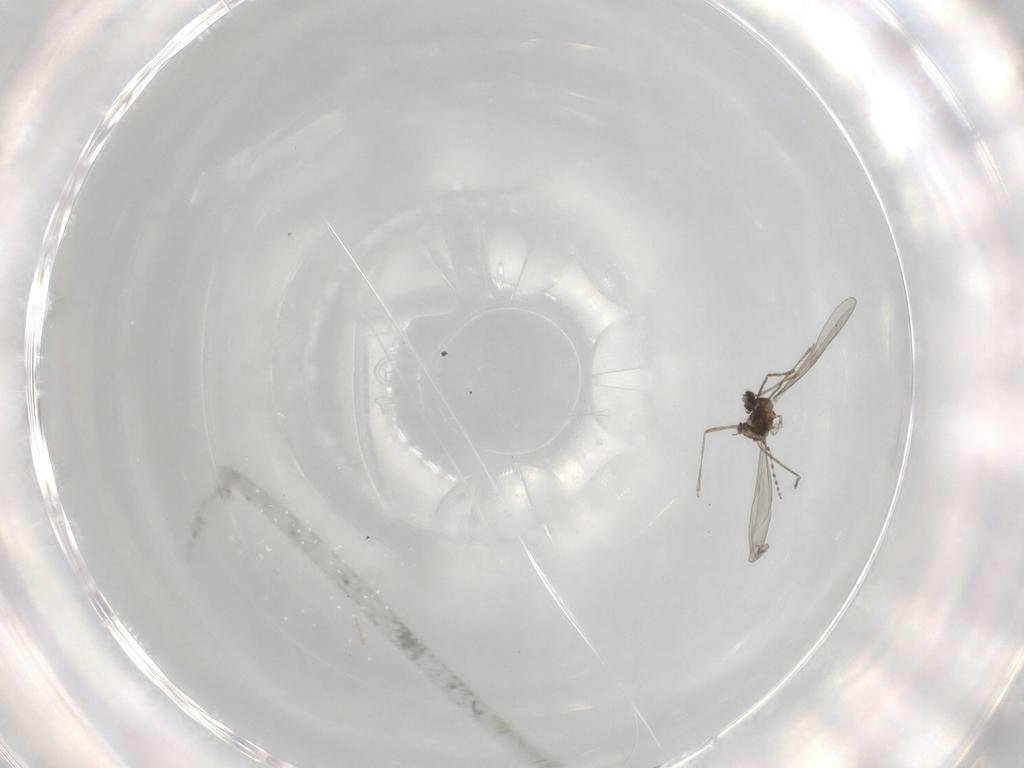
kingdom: Animalia
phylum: Arthropoda
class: Insecta
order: Diptera
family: Cecidomyiidae
